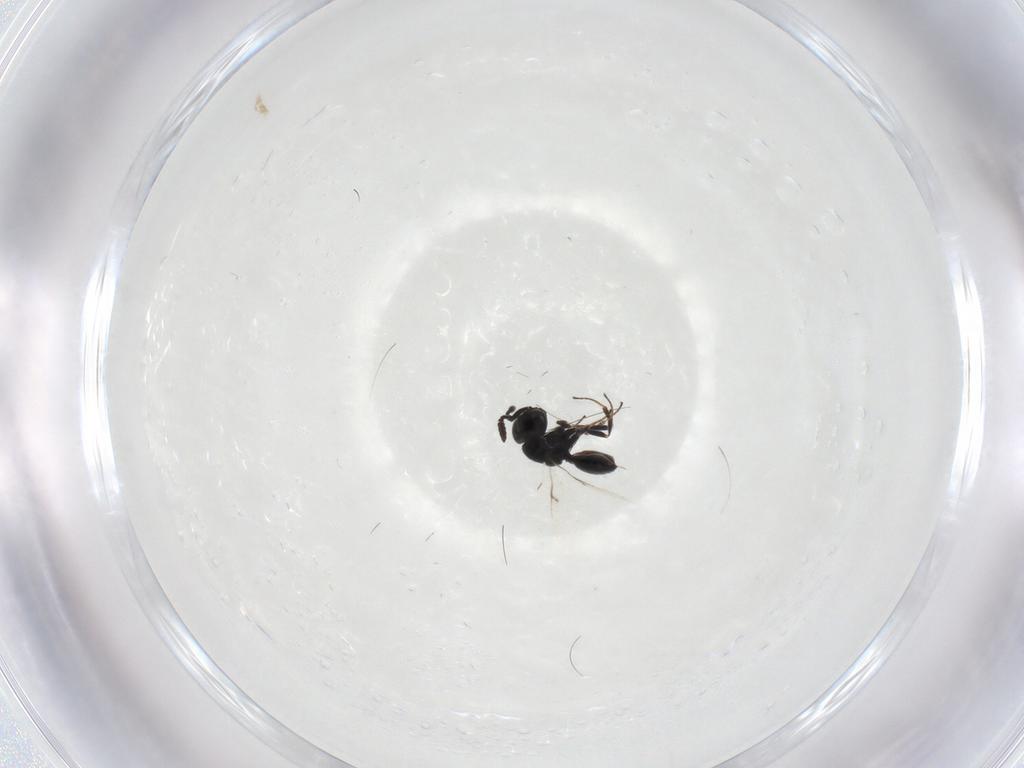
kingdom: Animalia
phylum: Arthropoda
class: Insecta
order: Hymenoptera
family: Scelionidae
